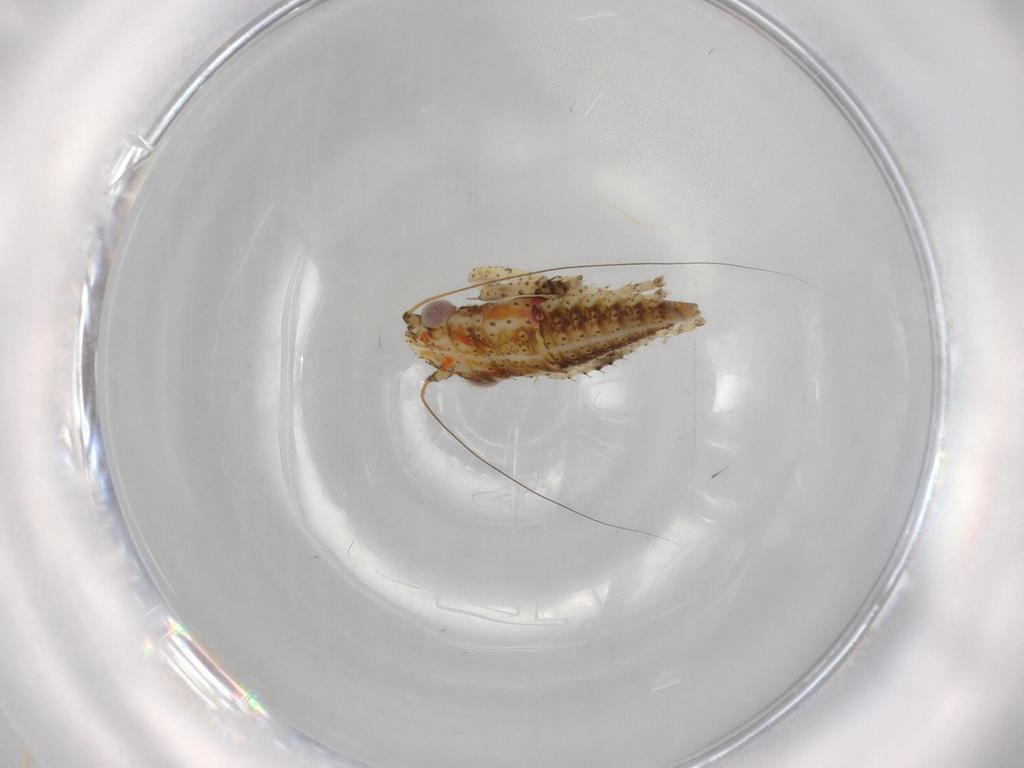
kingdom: Animalia
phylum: Arthropoda
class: Insecta
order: Hemiptera
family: Cicadellidae
